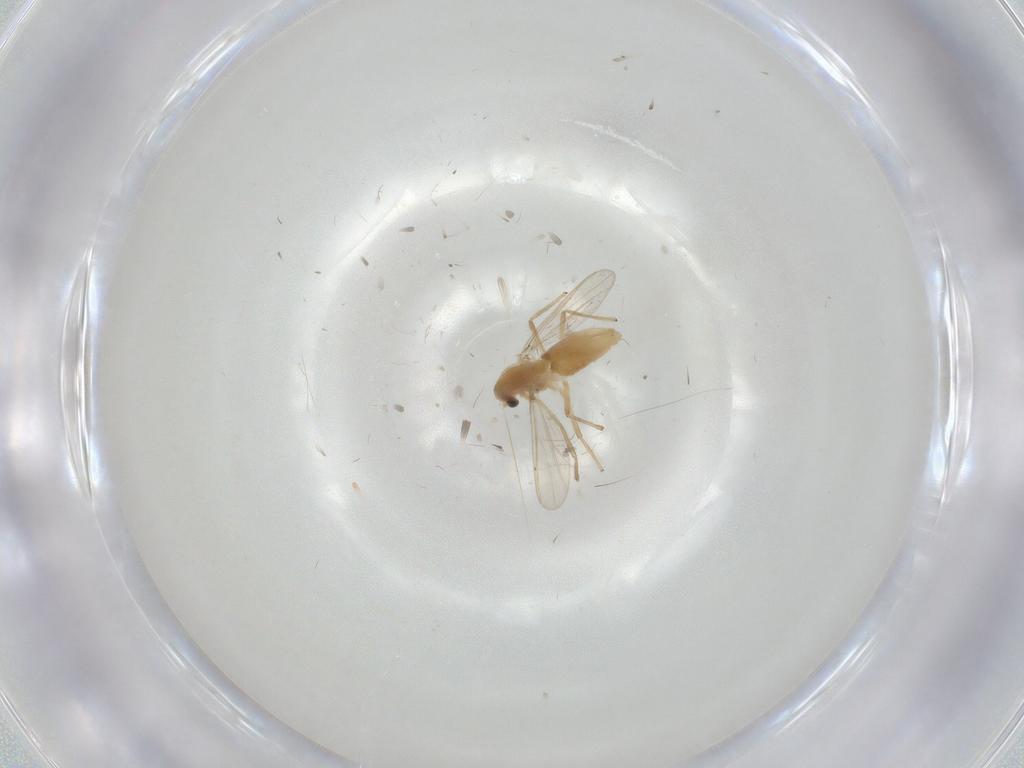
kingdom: Animalia
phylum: Arthropoda
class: Insecta
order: Diptera
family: Chironomidae
